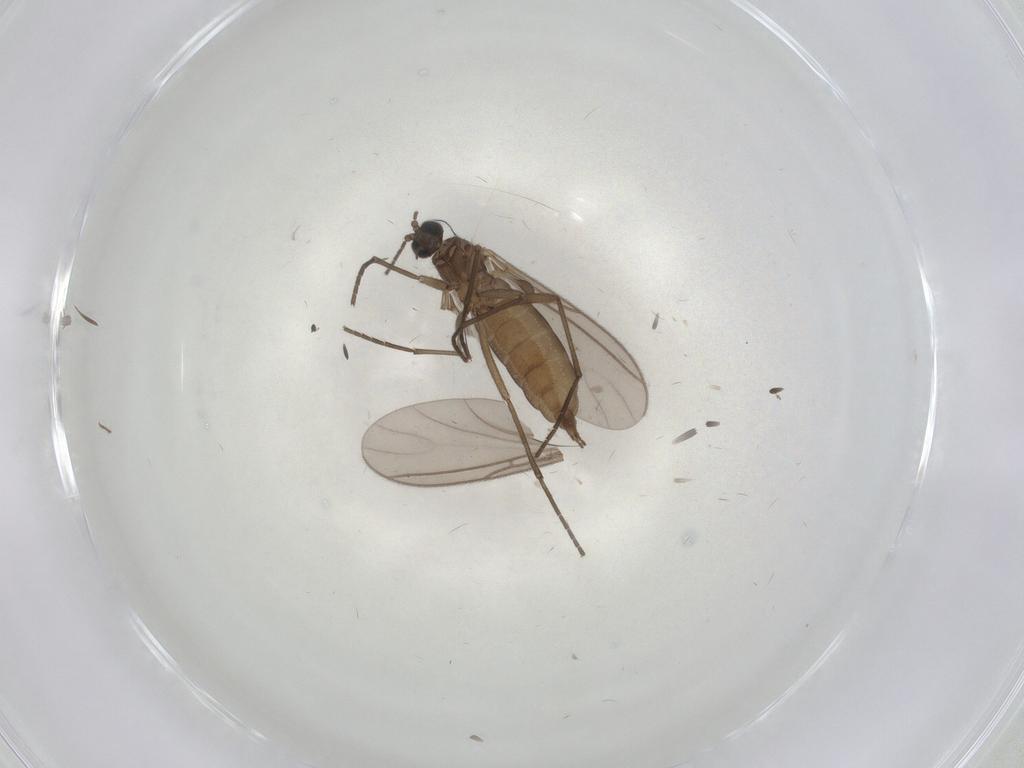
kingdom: Animalia
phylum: Arthropoda
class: Insecta
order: Diptera
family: Sciaridae
